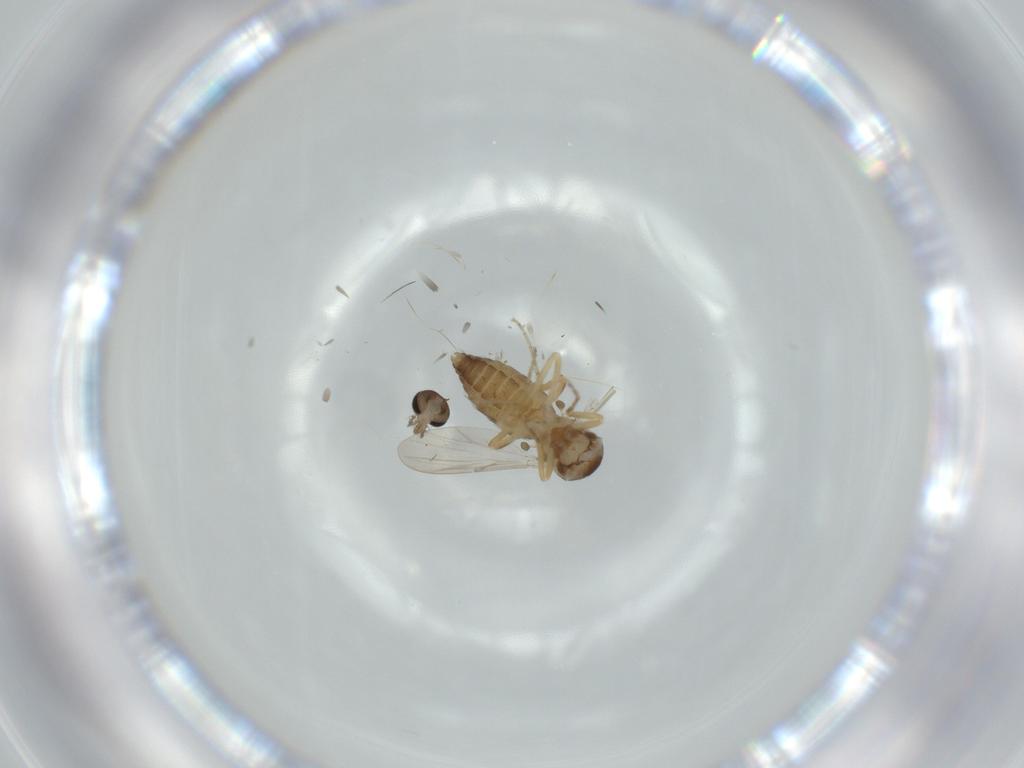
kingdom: Animalia
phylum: Arthropoda
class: Insecta
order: Diptera
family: Ceratopogonidae
